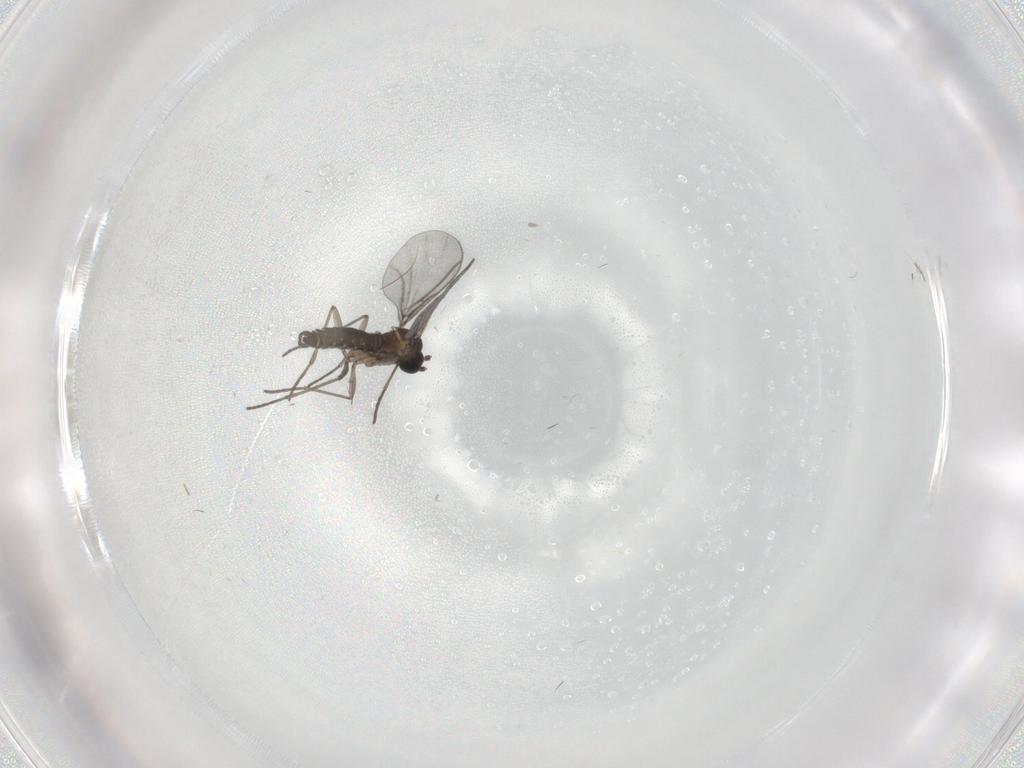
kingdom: Animalia
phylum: Arthropoda
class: Insecta
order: Diptera
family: Sciaridae
